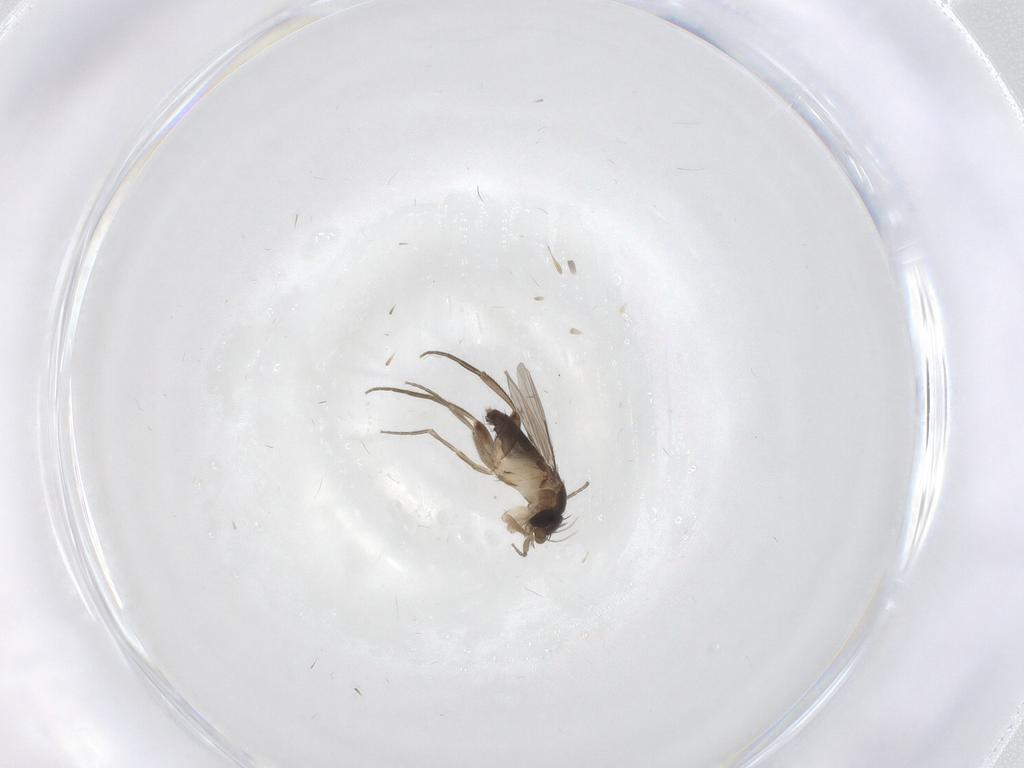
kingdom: Animalia
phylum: Arthropoda
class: Insecta
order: Diptera
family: Phoridae
